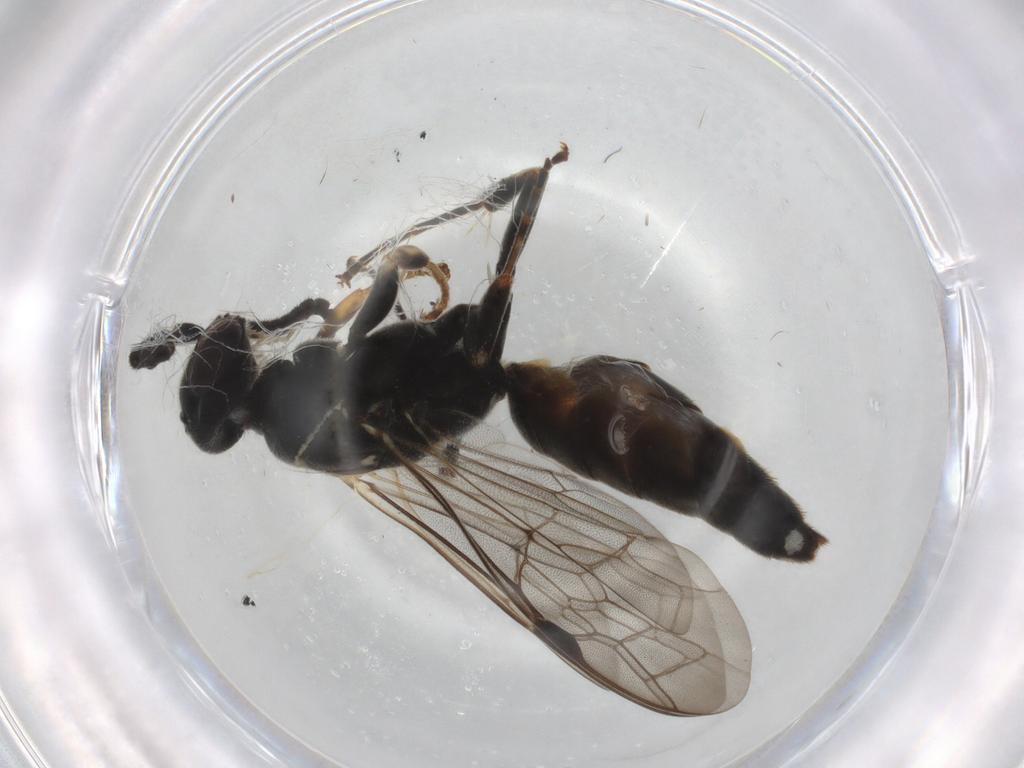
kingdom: Animalia
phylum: Arthropoda
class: Insecta
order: Hymenoptera
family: Thynnidae
